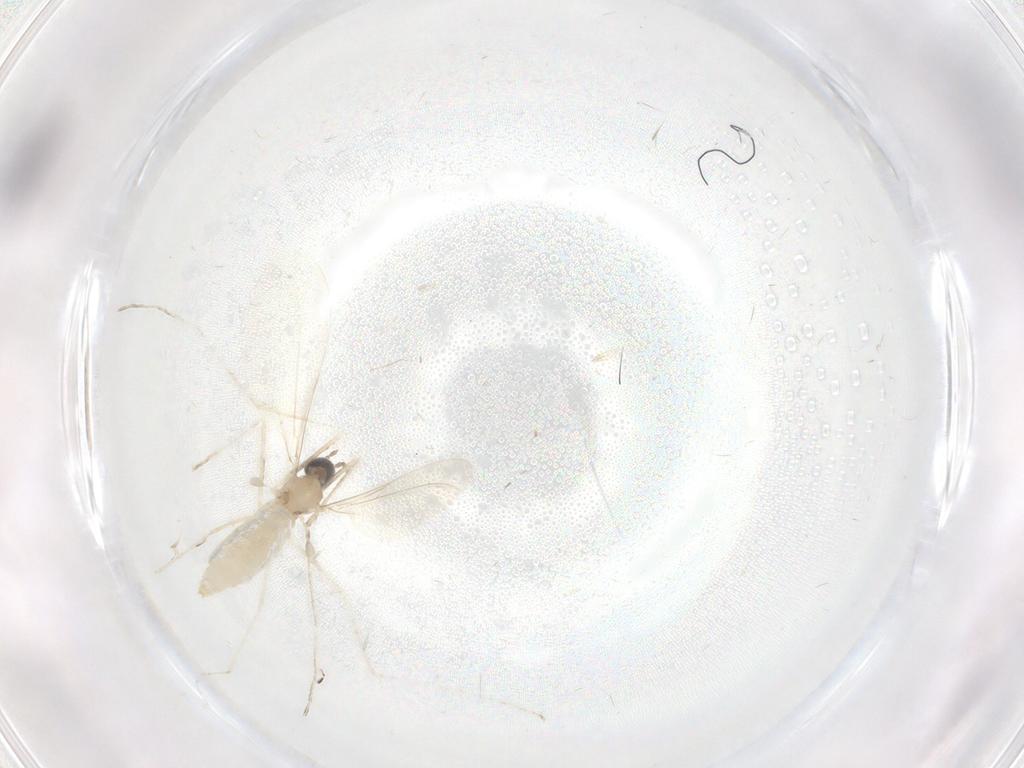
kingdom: Animalia
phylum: Arthropoda
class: Insecta
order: Diptera
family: Cecidomyiidae
